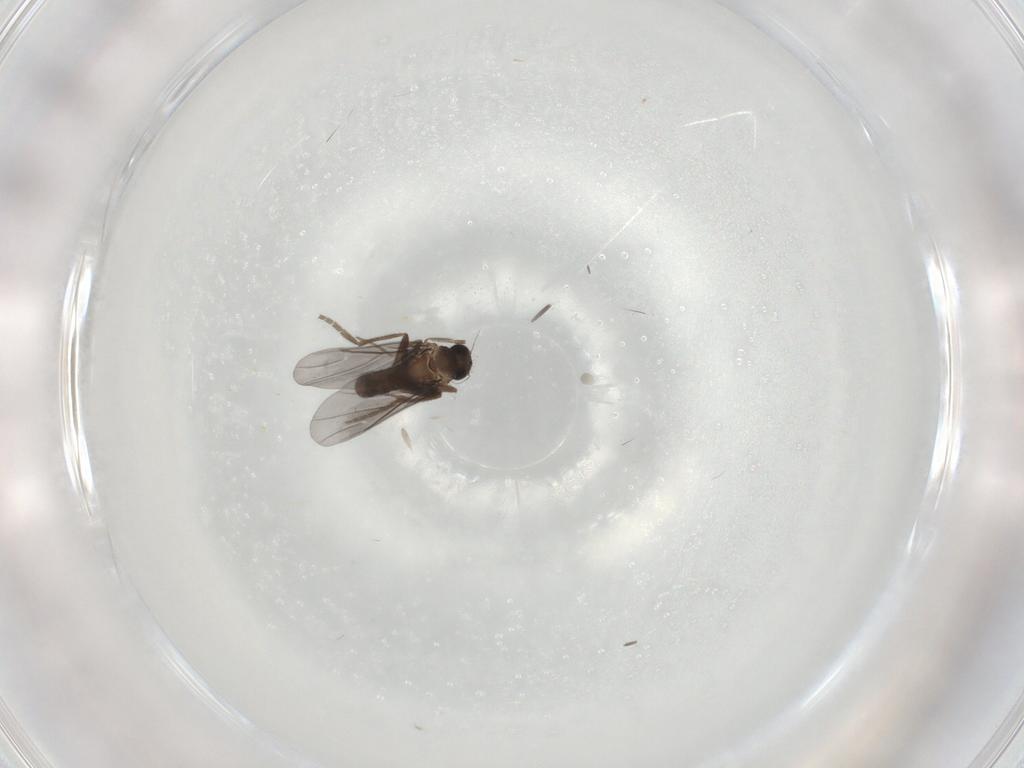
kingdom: Animalia
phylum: Arthropoda
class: Insecta
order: Diptera
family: Phoridae
